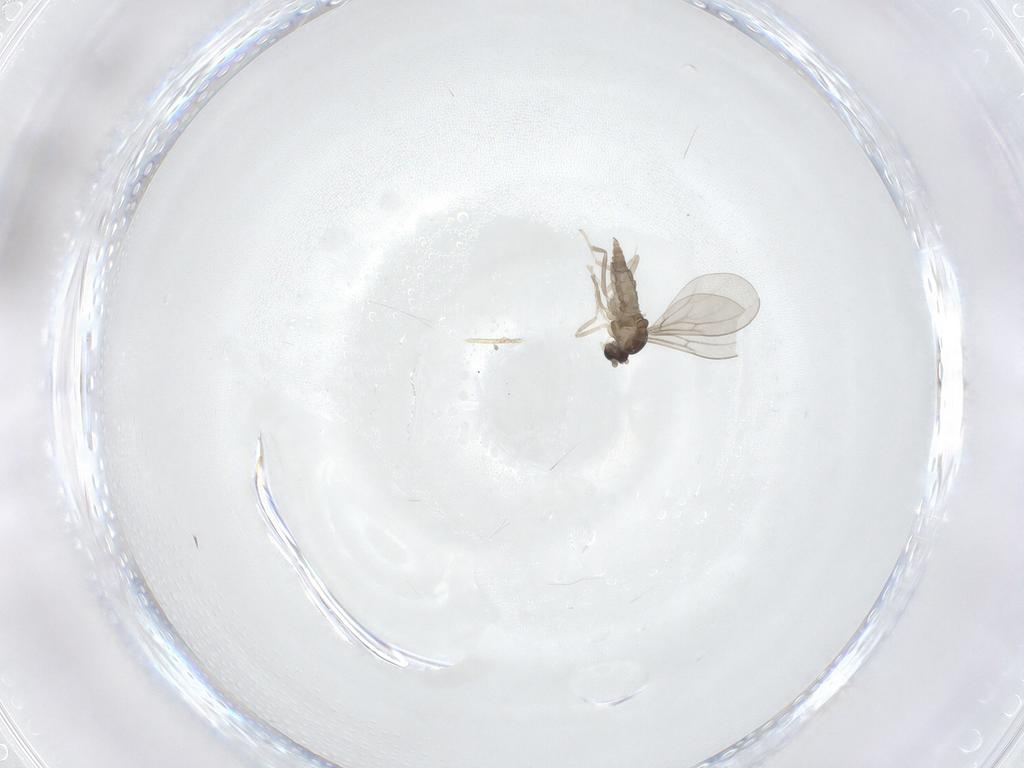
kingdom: Animalia
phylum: Arthropoda
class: Insecta
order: Diptera
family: Cecidomyiidae
